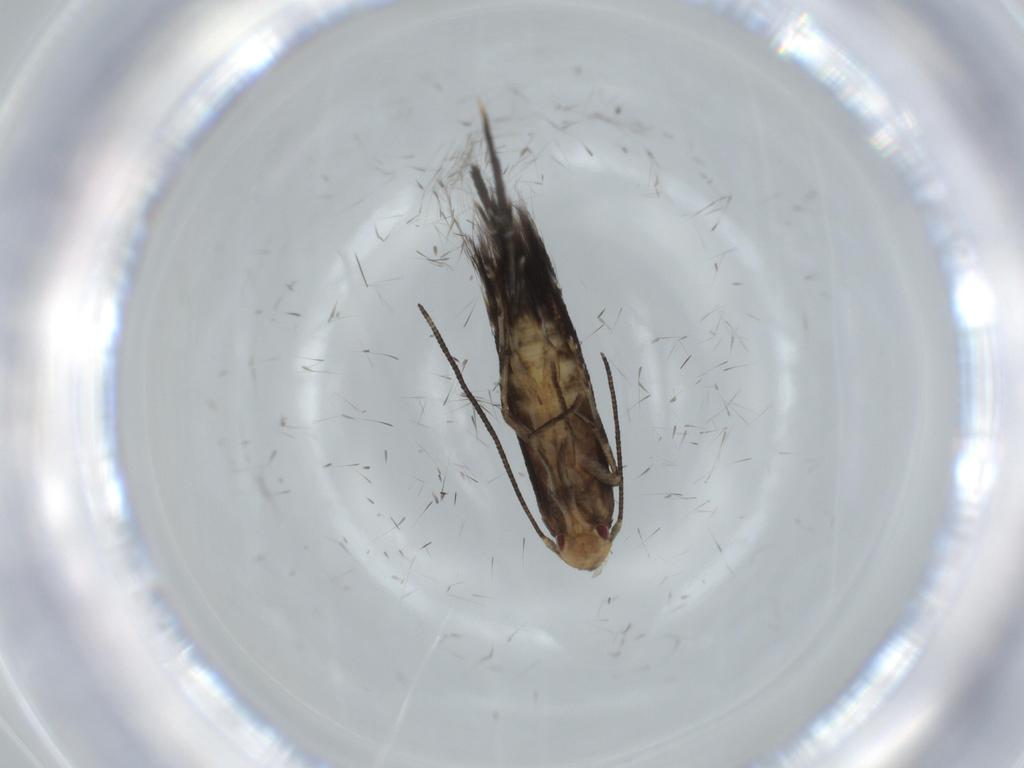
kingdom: Animalia
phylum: Arthropoda
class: Insecta
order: Lepidoptera
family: Momphidae
